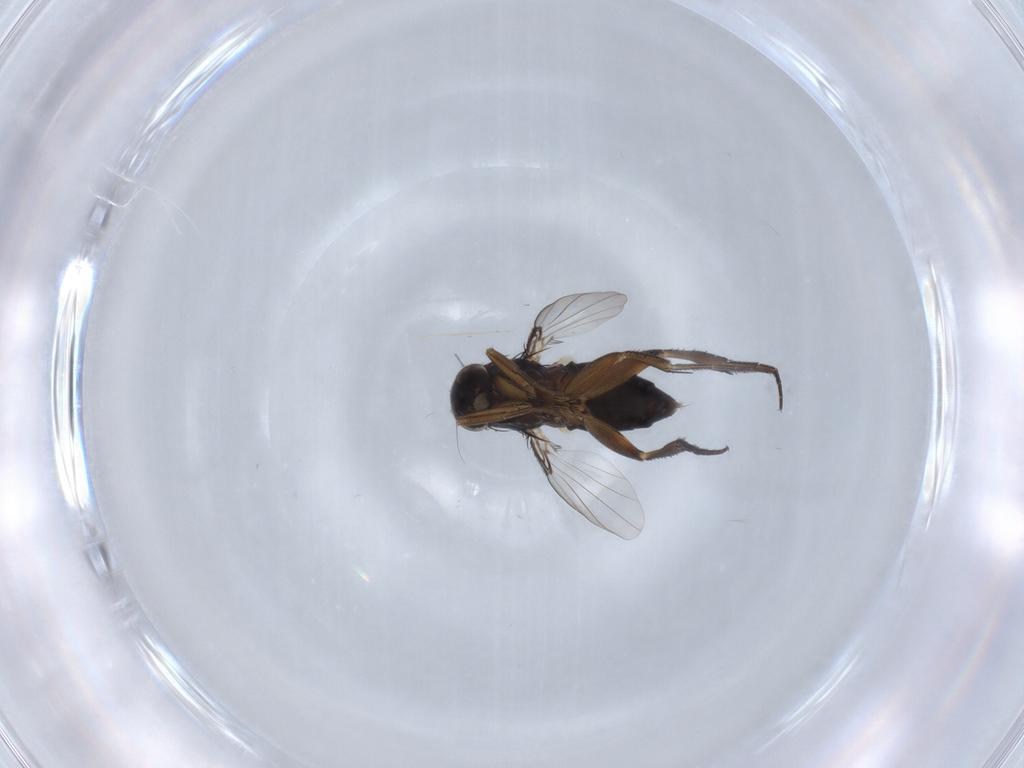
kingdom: Animalia
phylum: Arthropoda
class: Insecta
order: Diptera
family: Phoridae
